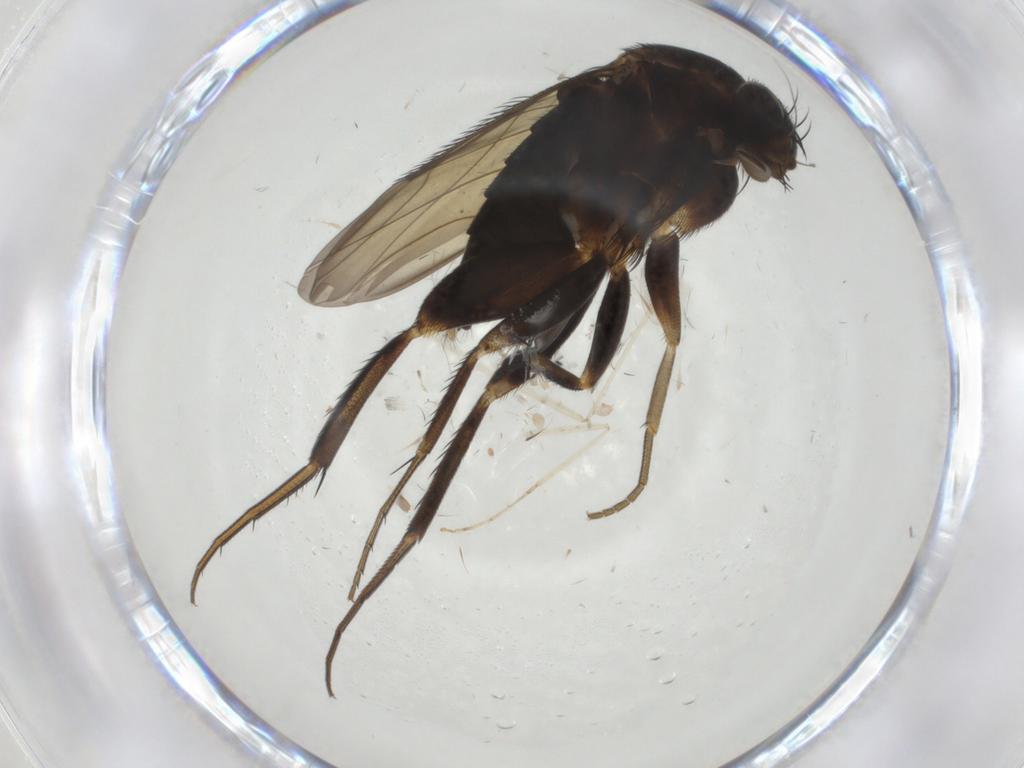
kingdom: Animalia
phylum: Arthropoda
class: Insecta
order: Diptera
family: Phoridae
